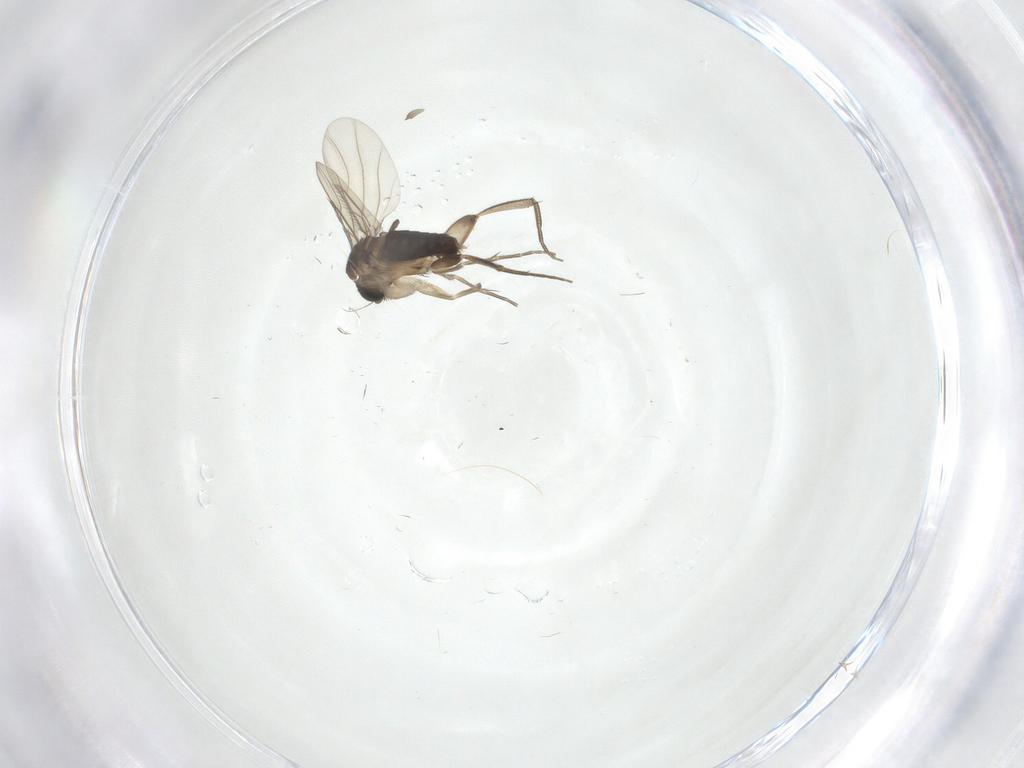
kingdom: Animalia
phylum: Arthropoda
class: Insecta
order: Diptera
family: Phoridae
